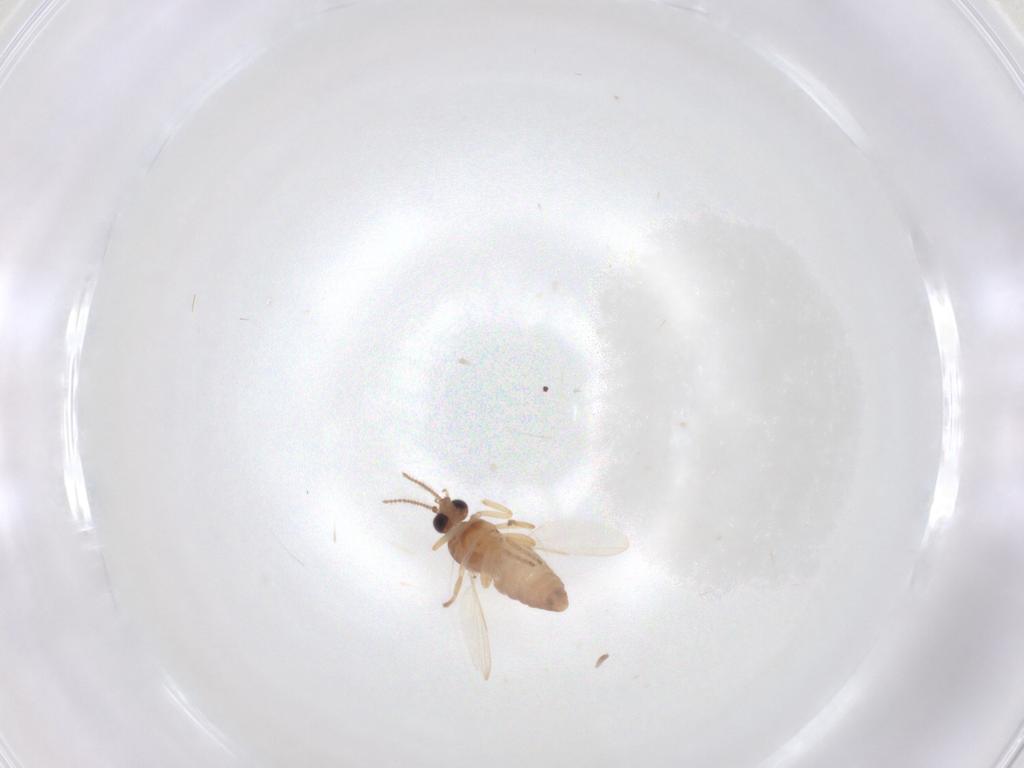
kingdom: Animalia
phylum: Arthropoda
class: Insecta
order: Diptera
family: Ceratopogonidae
